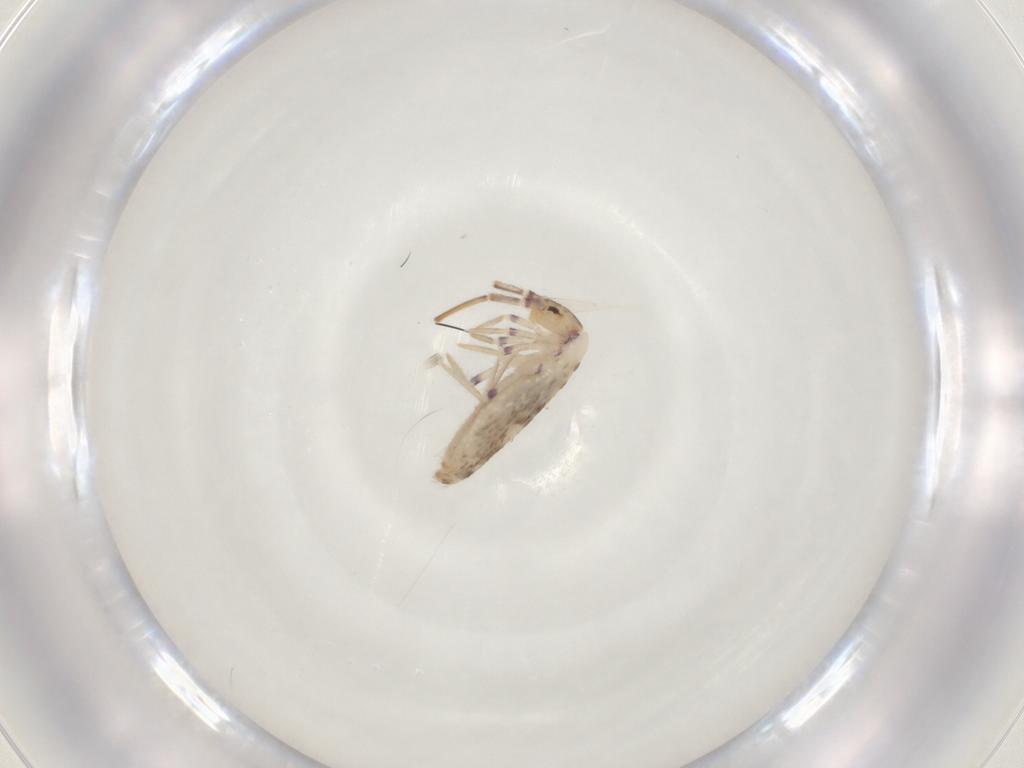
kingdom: Animalia
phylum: Arthropoda
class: Collembola
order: Entomobryomorpha
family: Entomobryidae
